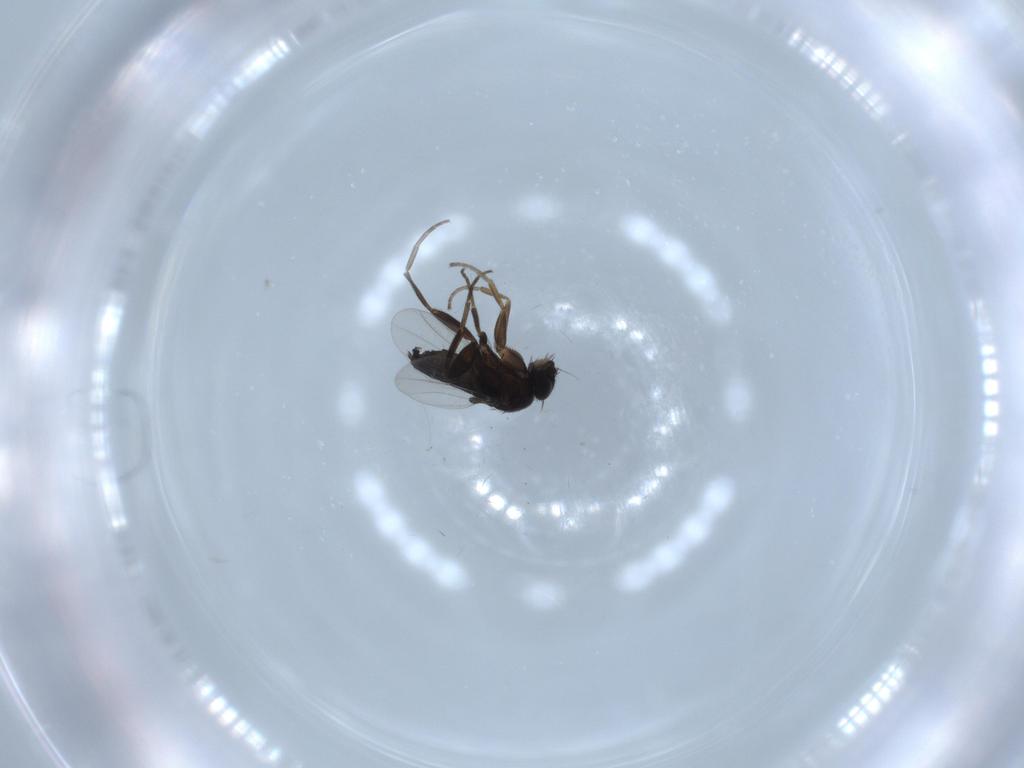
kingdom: Animalia
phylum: Arthropoda
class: Insecta
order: Diptera
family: Phoridae
